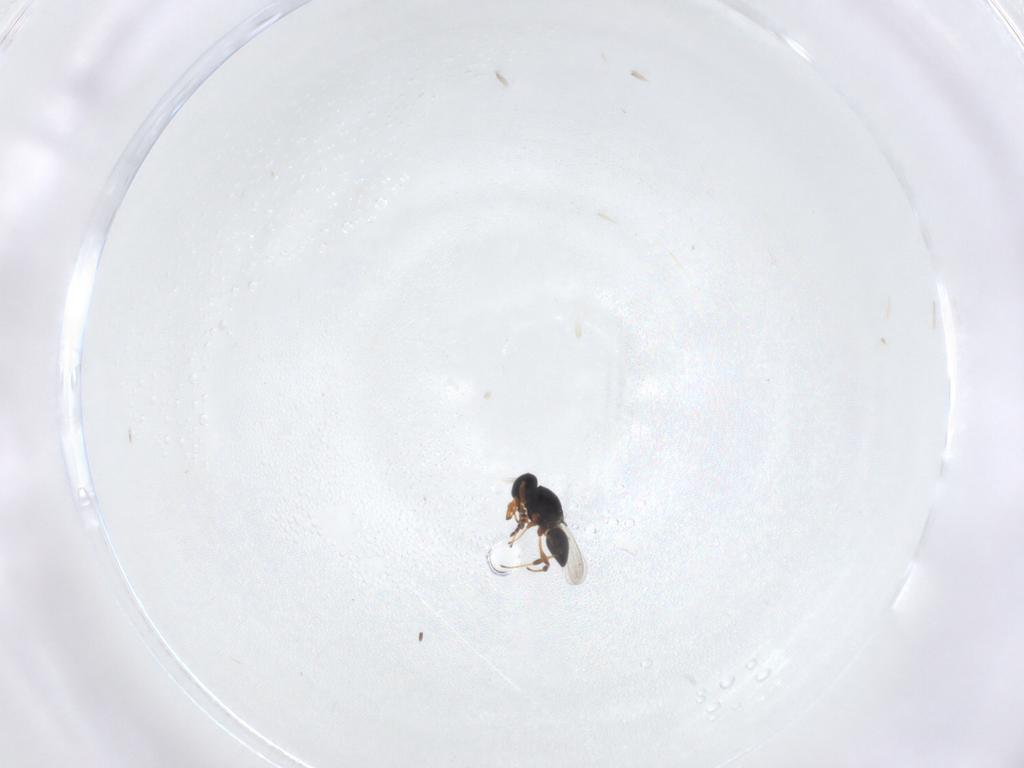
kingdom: Animalia
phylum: Arthropoda
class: Insecta
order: Hymenoptera
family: Platygastridae
